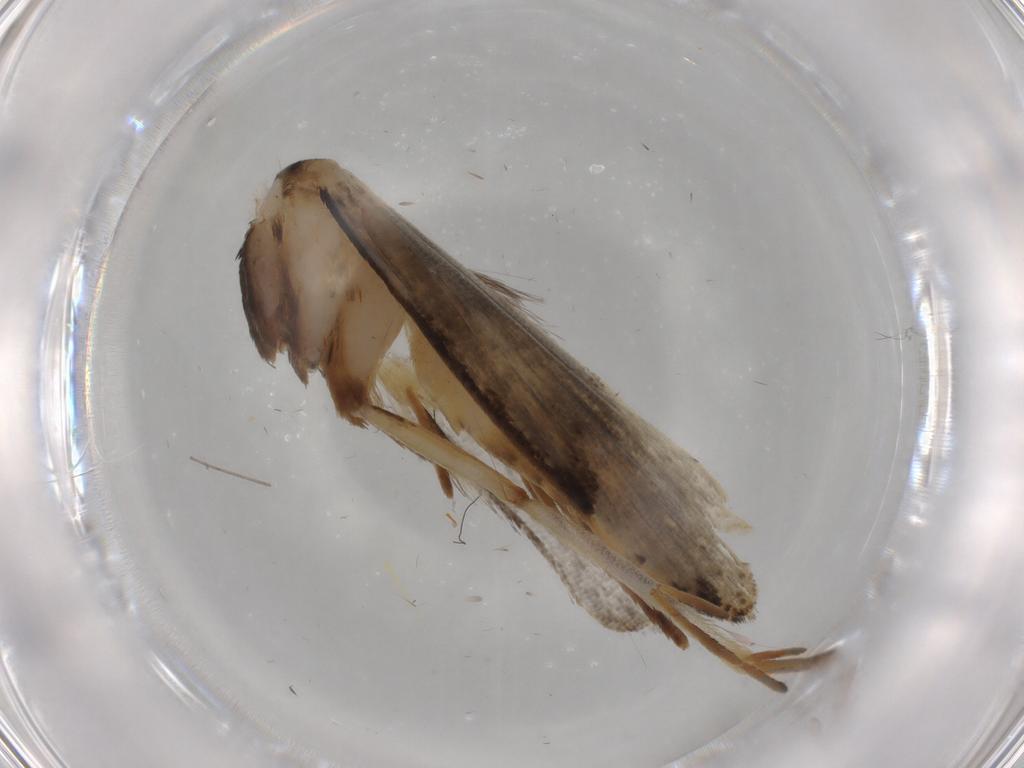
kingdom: Animalia
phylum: Arthropoda
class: Insecta
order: Lepidoptera
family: Tineidae
